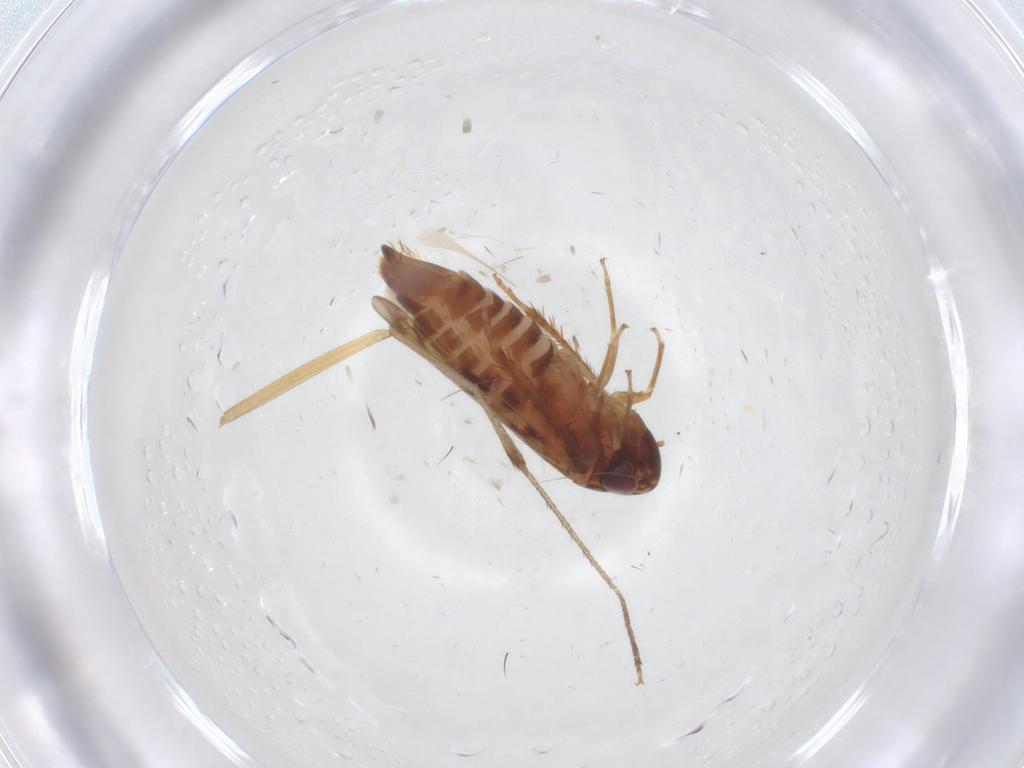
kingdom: Animalia
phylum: Arthropoda
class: Insecta
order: Hemiptera
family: Cicadellidae
